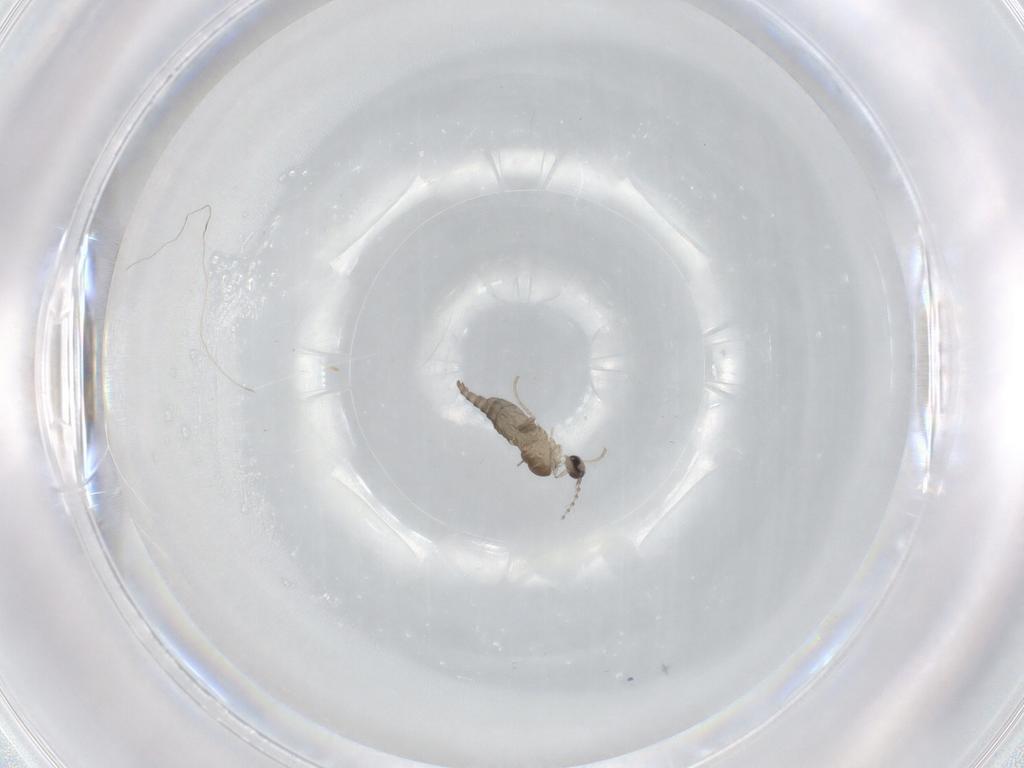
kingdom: Animalia
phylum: Arthropoda
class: Insecta
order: Diptera
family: Cecidomyiidae
